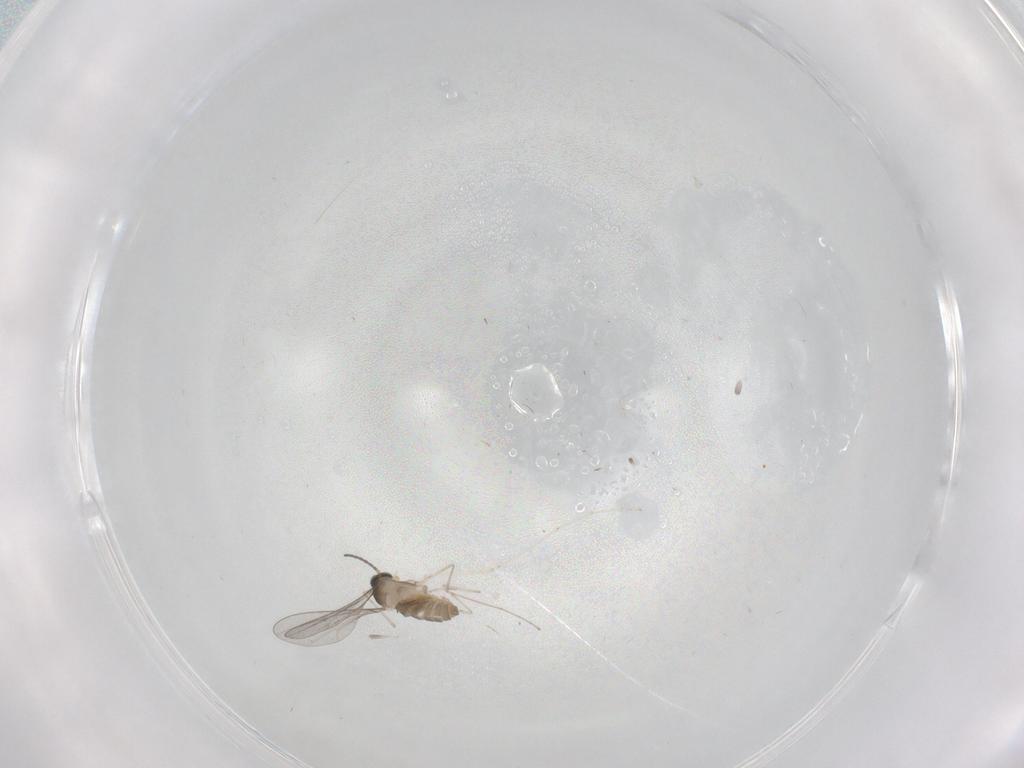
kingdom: Animalia
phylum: Arthropoda
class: Insecta
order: Diptera
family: Cecidomyiidae
